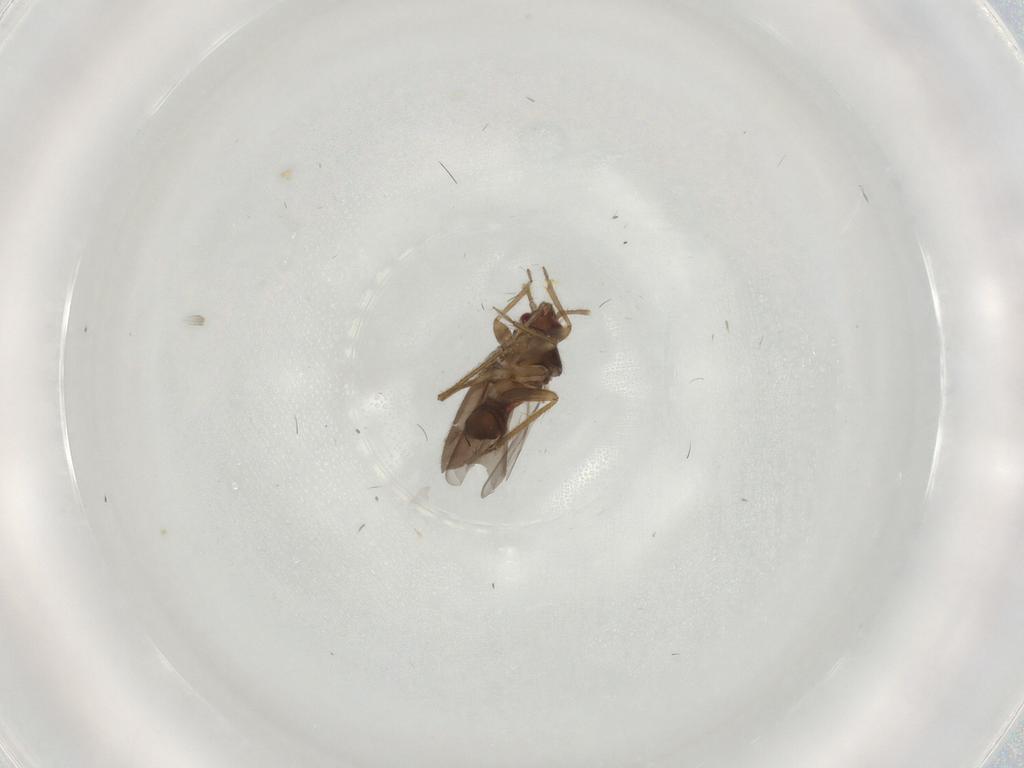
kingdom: Animalia
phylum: Arthropoda
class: Insecta
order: Hemiptera
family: Ceratocombidae
